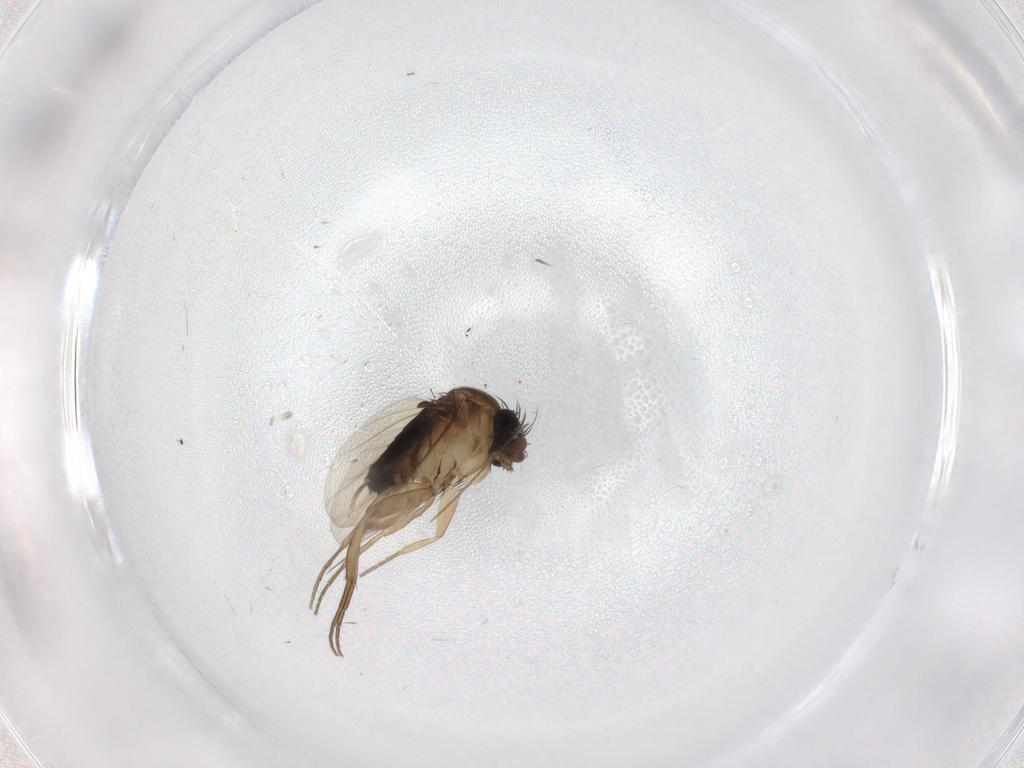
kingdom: Animalia
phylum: Arthropoda
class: Insecta
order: Diptera
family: Phoridae
